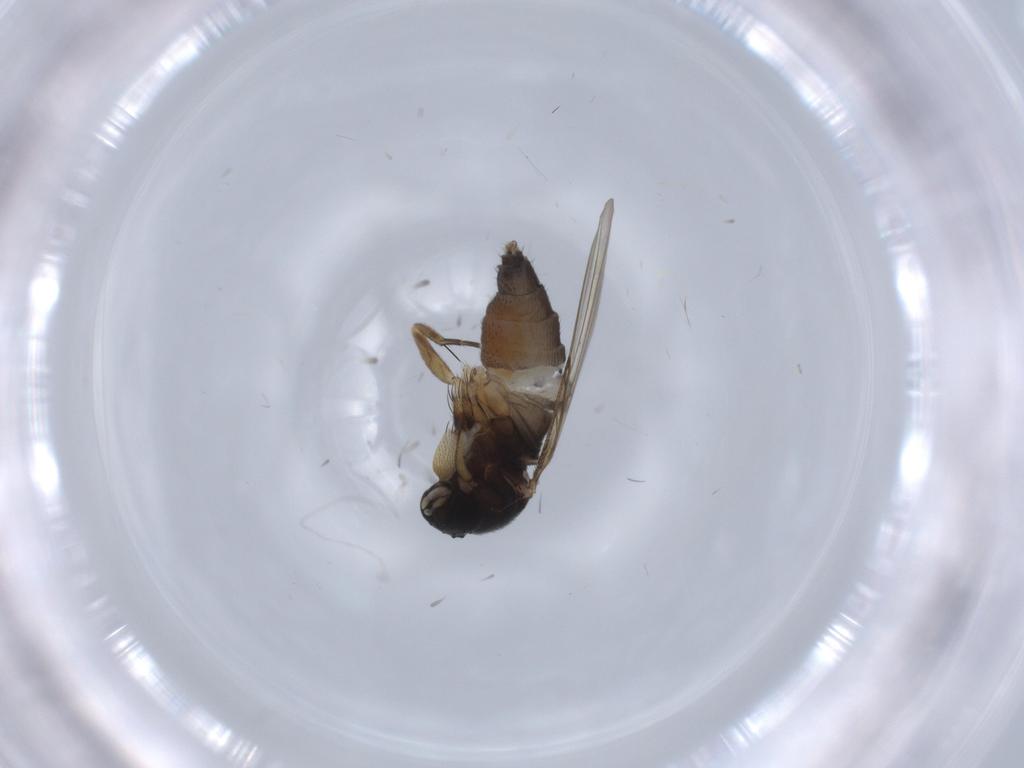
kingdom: Animalia
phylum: Arthropoda
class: Insecta
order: Diptera
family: Phoridae
